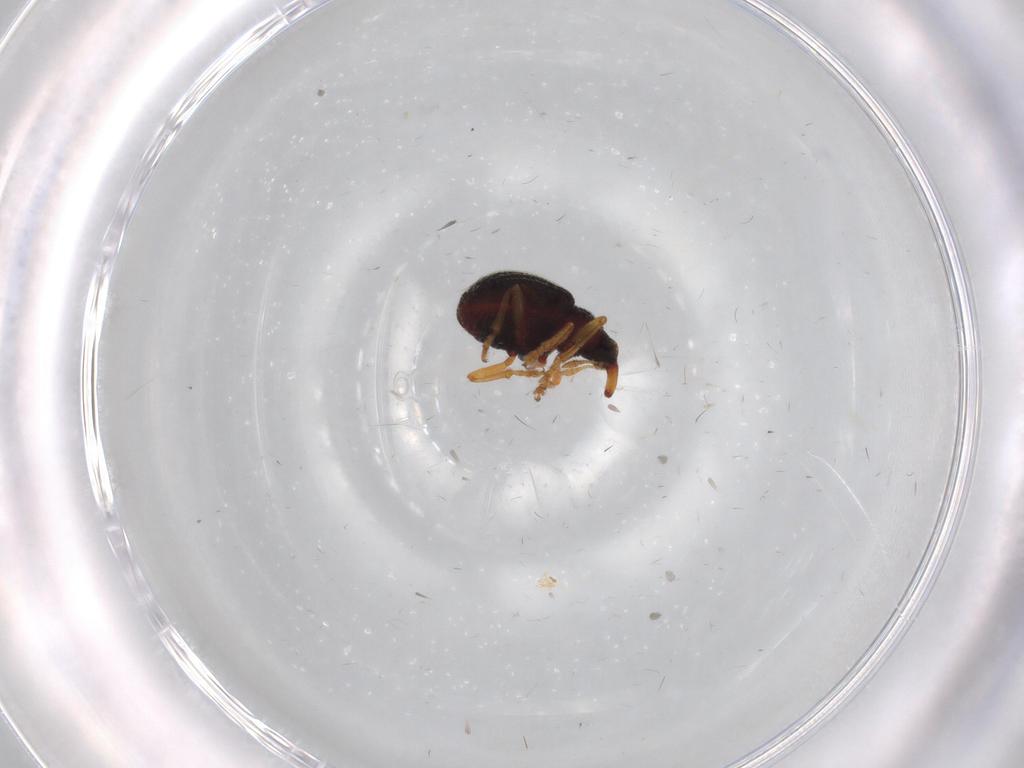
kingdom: Animalia
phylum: Arthropoda
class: Insecta
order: Coleoptera
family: Brentidae
